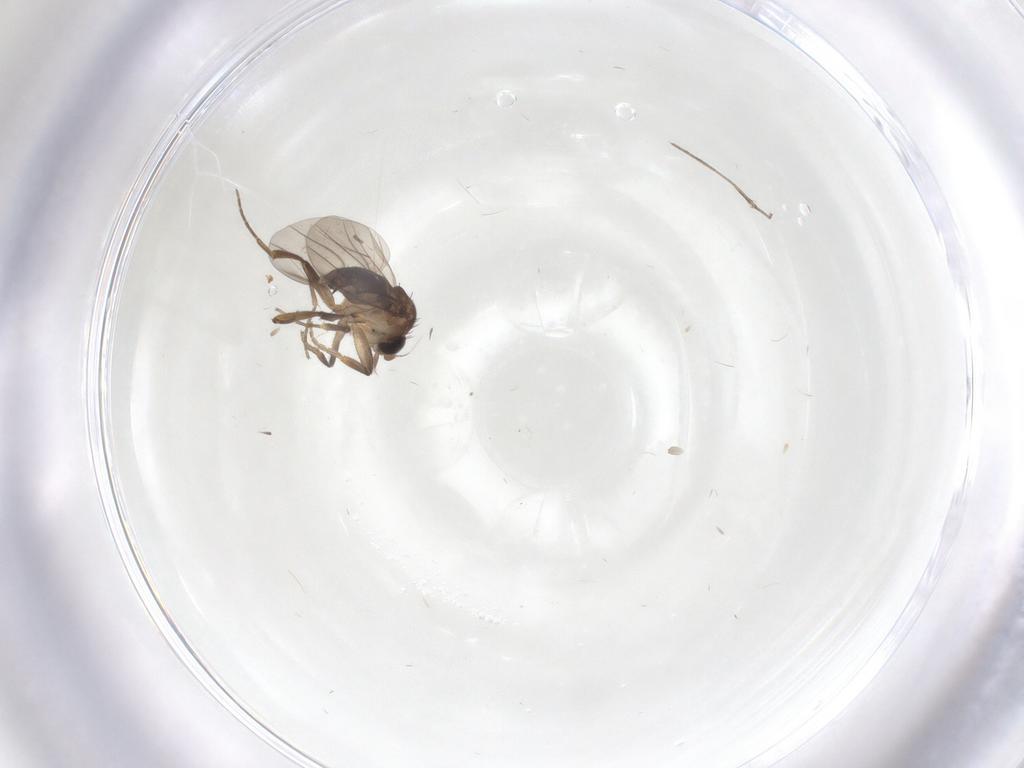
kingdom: Animalia
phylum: Arthropoda
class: Insecta
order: Diptera
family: Phoridae
